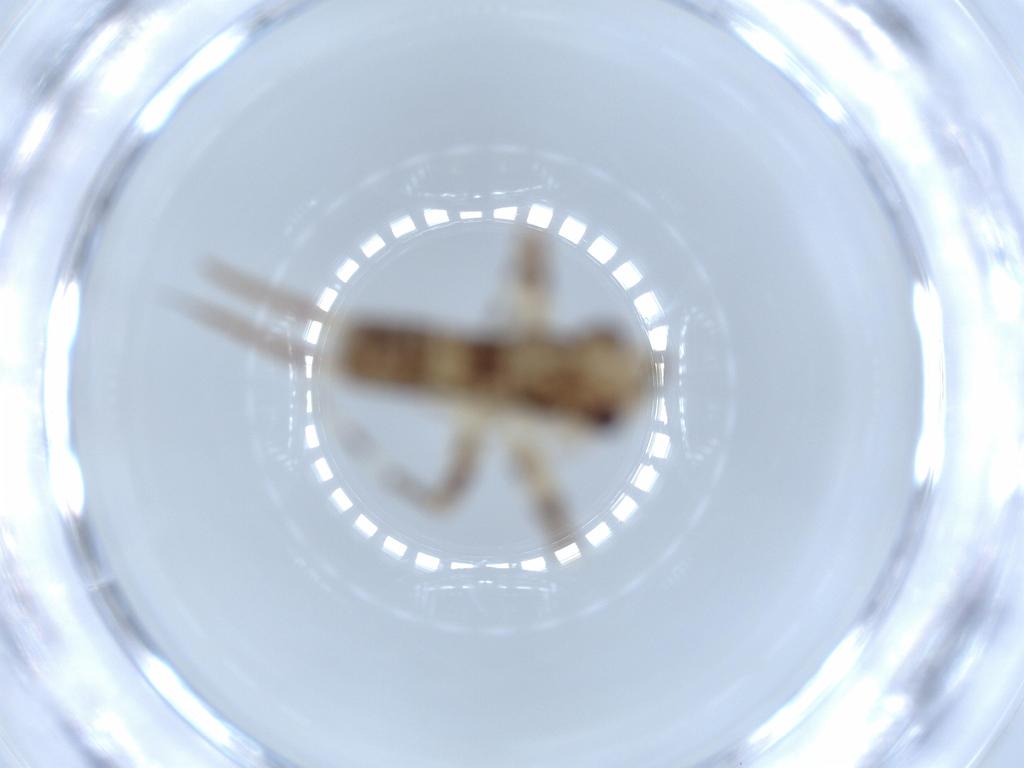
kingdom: Animalia
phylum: Arthropoda
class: Insecta
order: Orthoptera
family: Gryllidae
